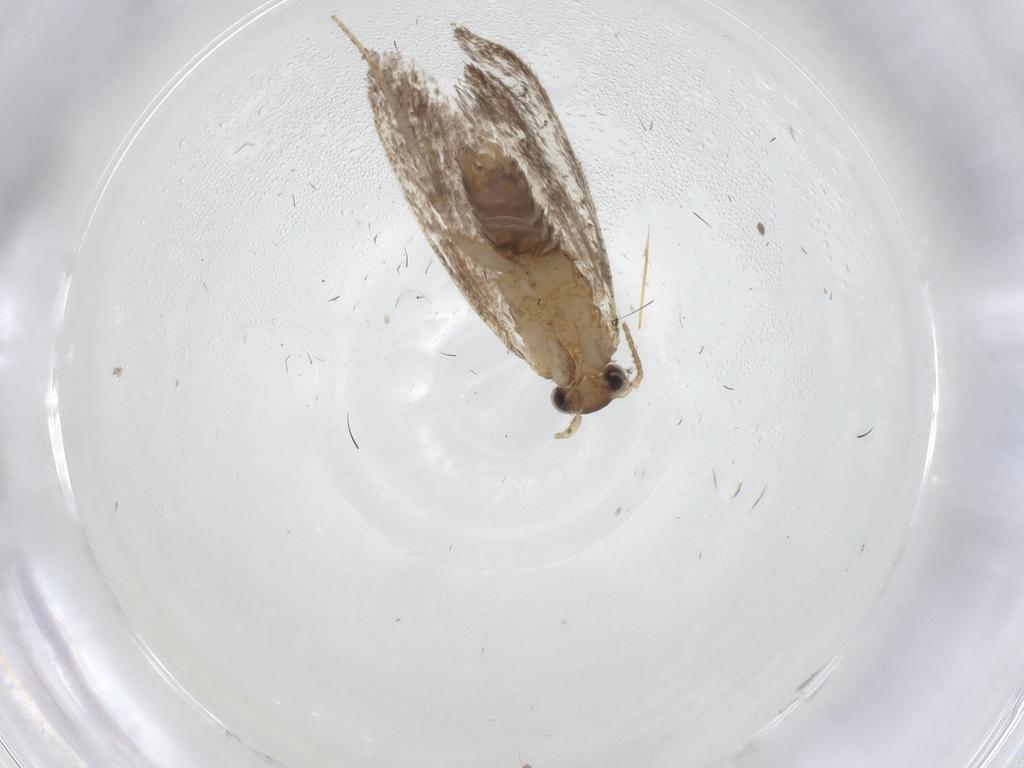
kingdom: Animalia
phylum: Arthropoda
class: Insecta
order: Lepidoptera
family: Dryadaulidae
